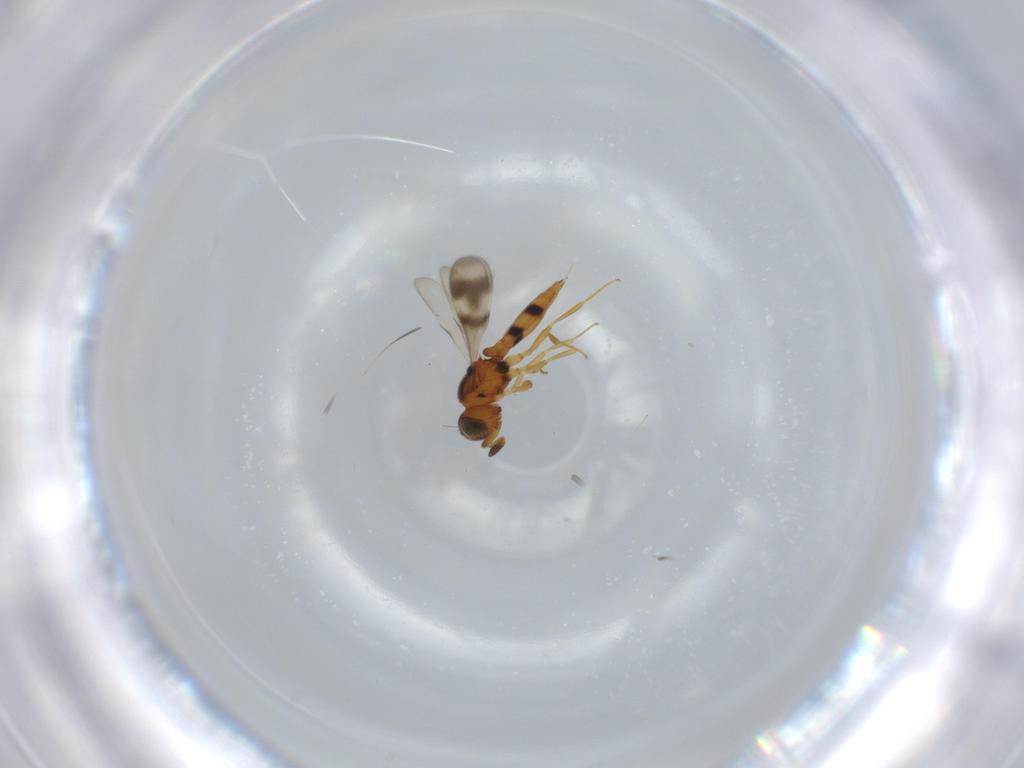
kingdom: Animalia
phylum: Arthropoda
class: Insecta
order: Hymenoptera
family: Scelionidae
